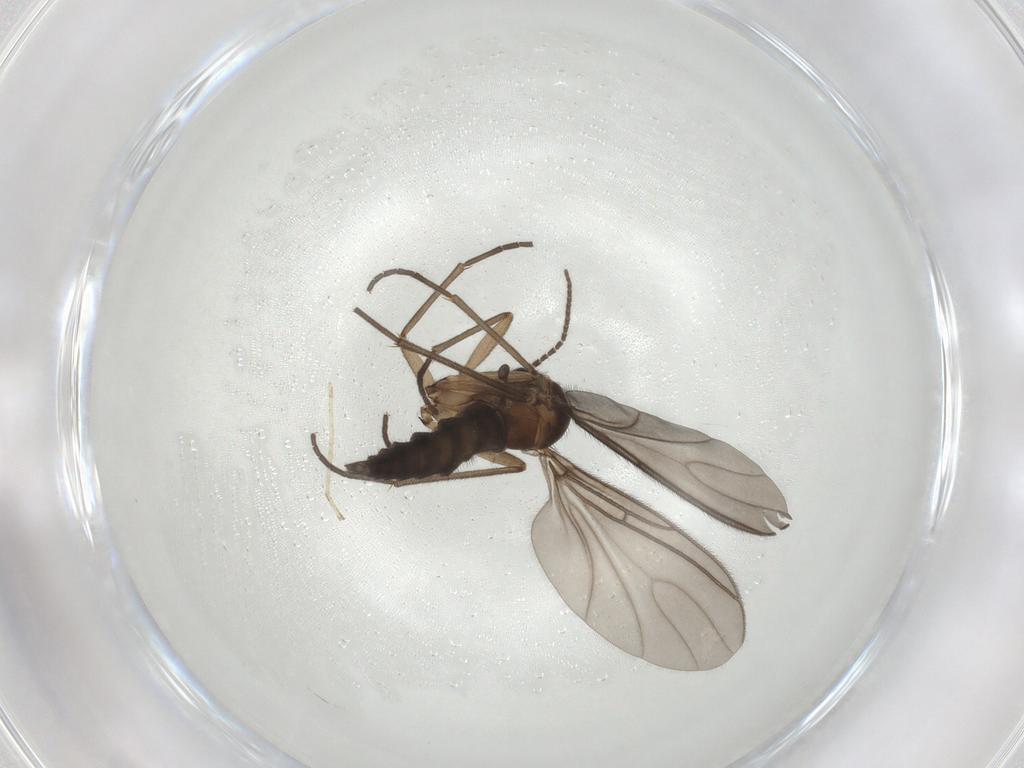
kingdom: Animalia
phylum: Arthropoda
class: Insecta
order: Diptera
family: Sciaridae
